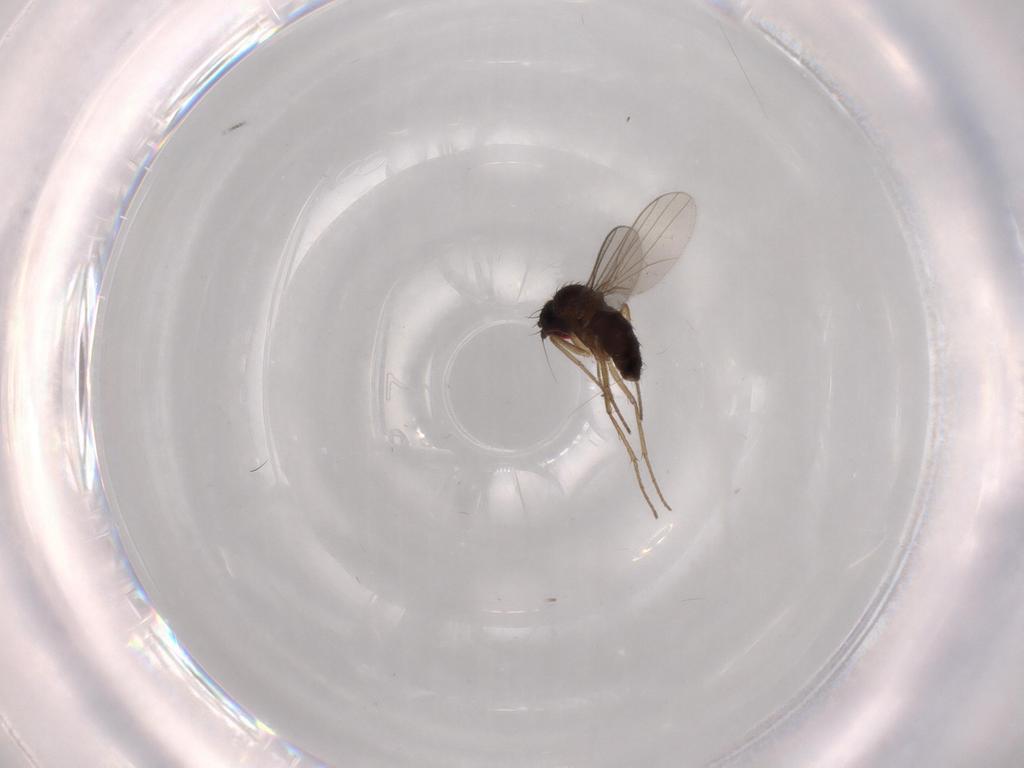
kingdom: Animalia
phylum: Arthropoda
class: Insecta
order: Diptera
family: Dolichopodidae
